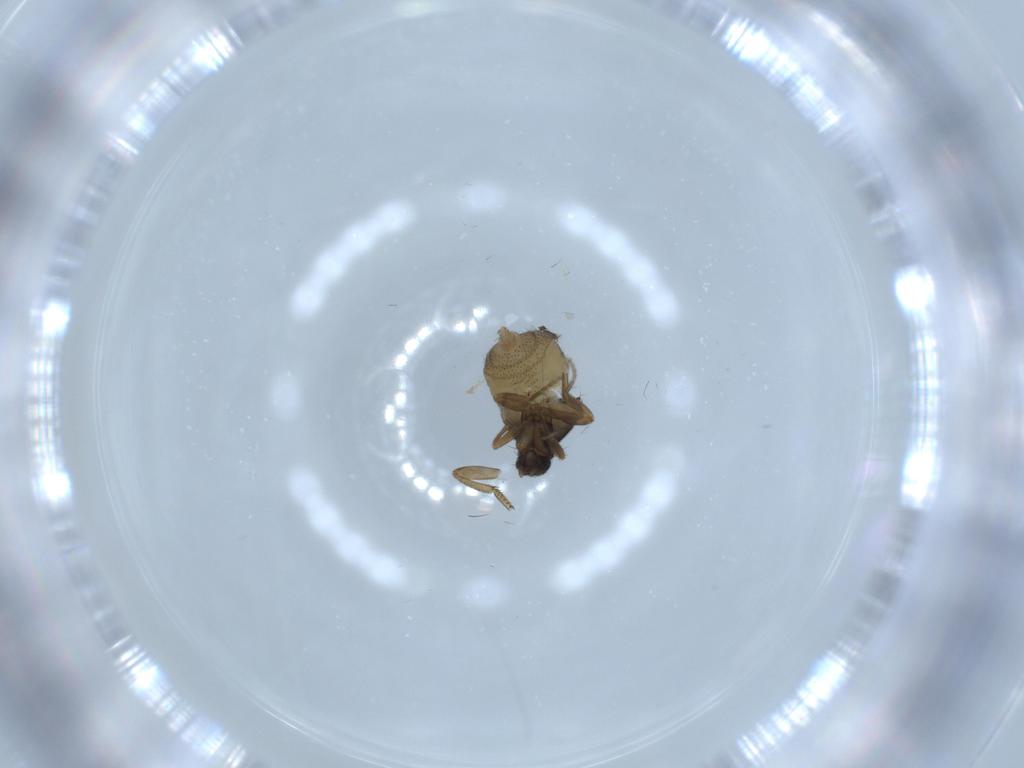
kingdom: Animalia
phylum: Arthropoda
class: Insecta
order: Diptera
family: Phoridae
